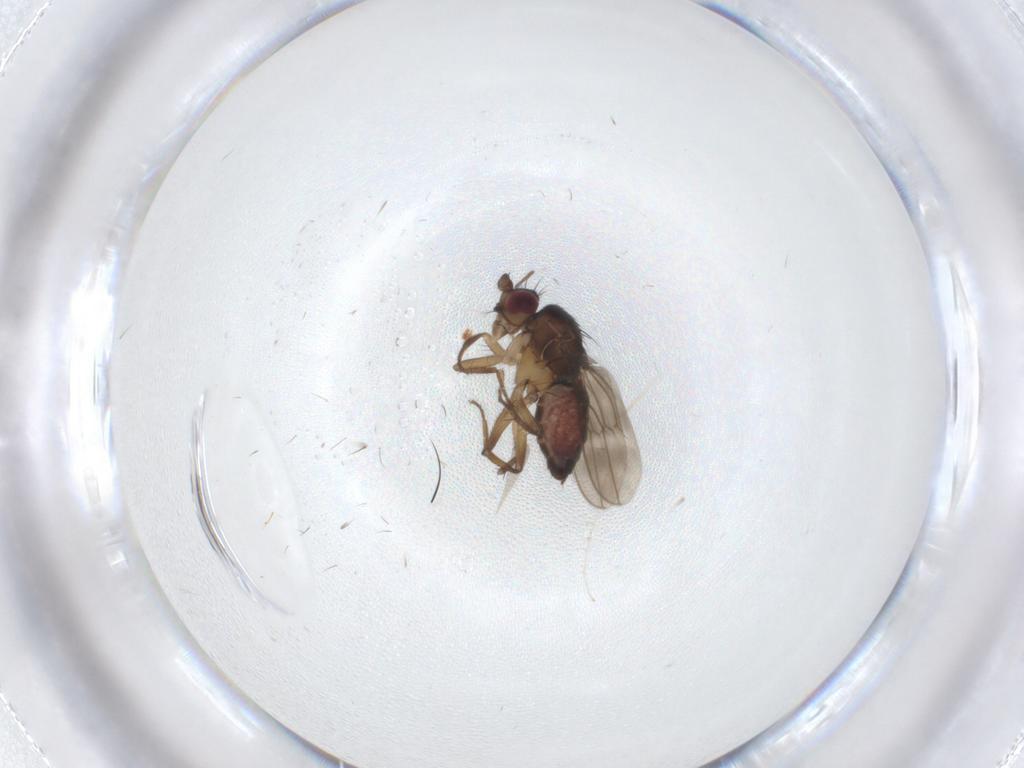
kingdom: Animalia
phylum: Arthropoda
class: Insecta
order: Diptera
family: Sphaeroceridae
